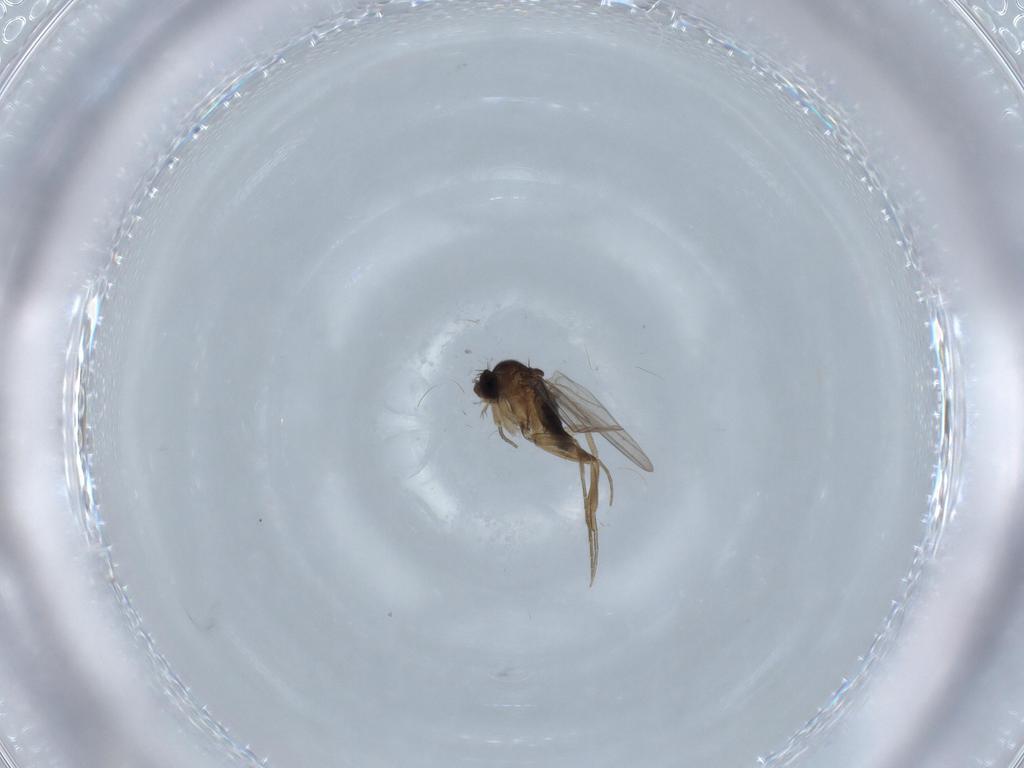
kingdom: Animalia
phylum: Arthropoda
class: Insecta
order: Diptera
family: Phoridae
